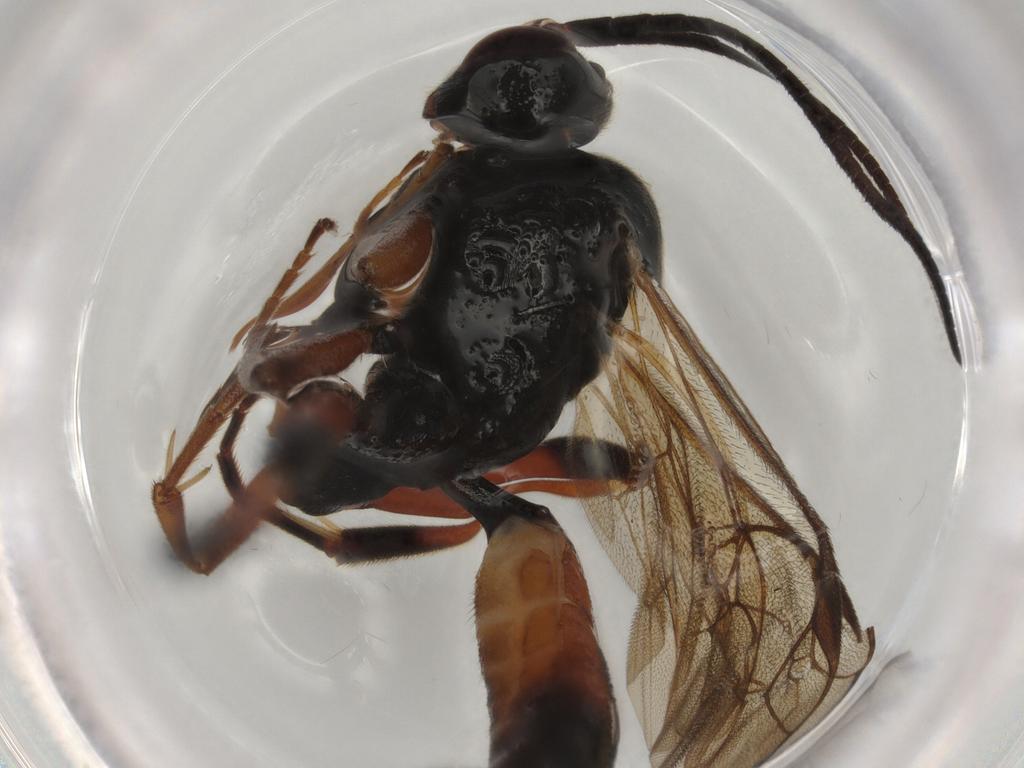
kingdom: Animalia
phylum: Arthropoda
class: Insecta
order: Hymenoptera
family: Ichneumonidae
